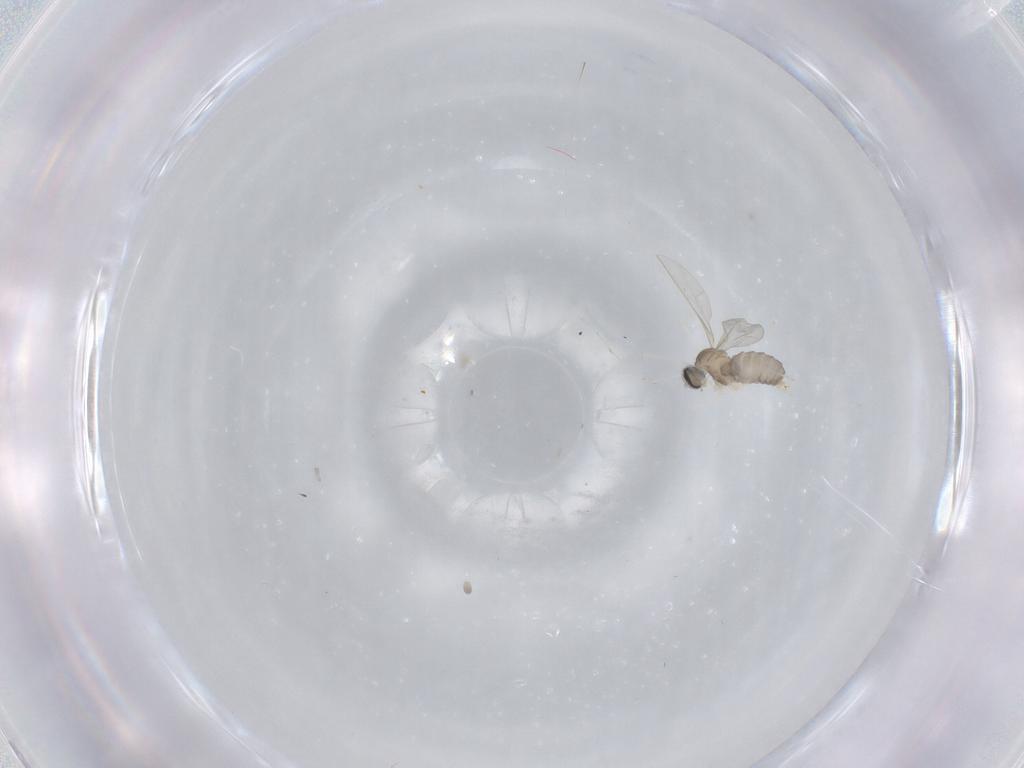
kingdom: Animalia
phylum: Arthropoda
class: Insecta
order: Diptera
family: Cecidomyiidae
